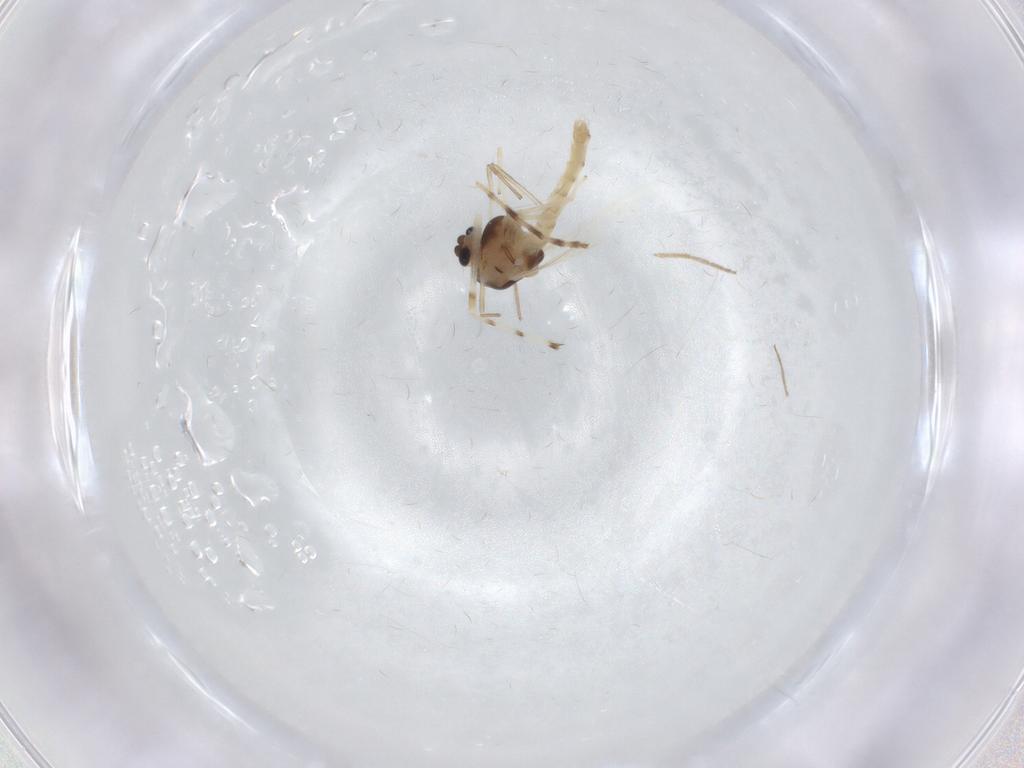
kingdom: Animalia
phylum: Arthropoda
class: Insecta
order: Diptera
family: Chironomidae
